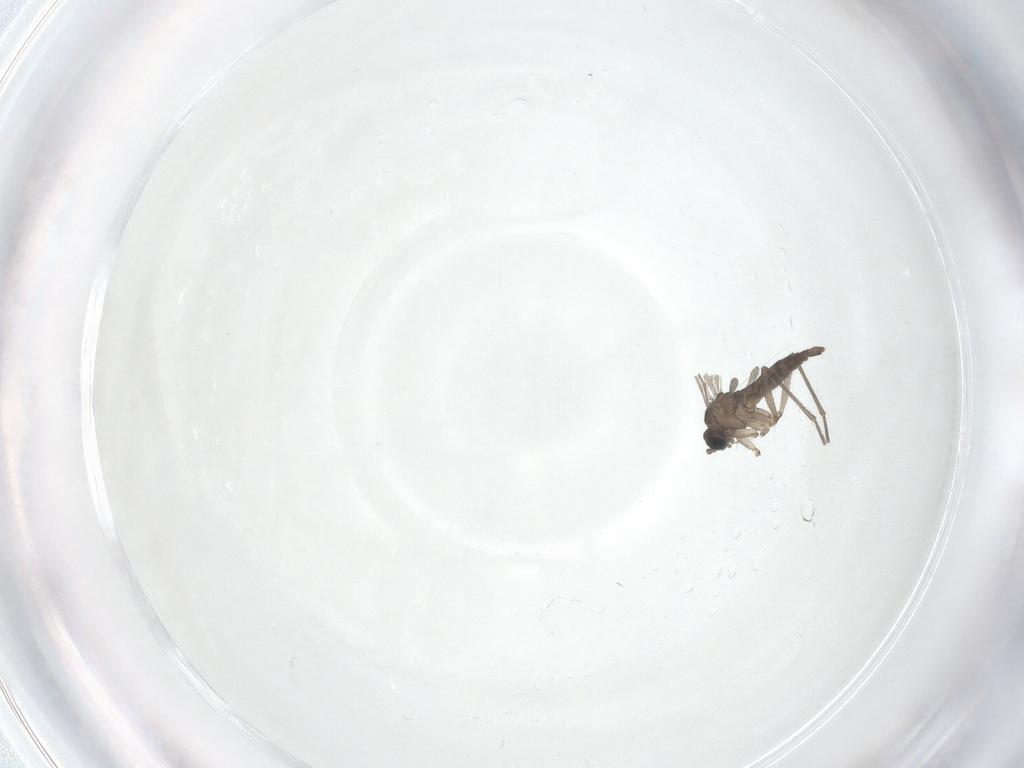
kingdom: Animalia
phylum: Arthropoda
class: Insecta
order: Diptera
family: Sciaridae
